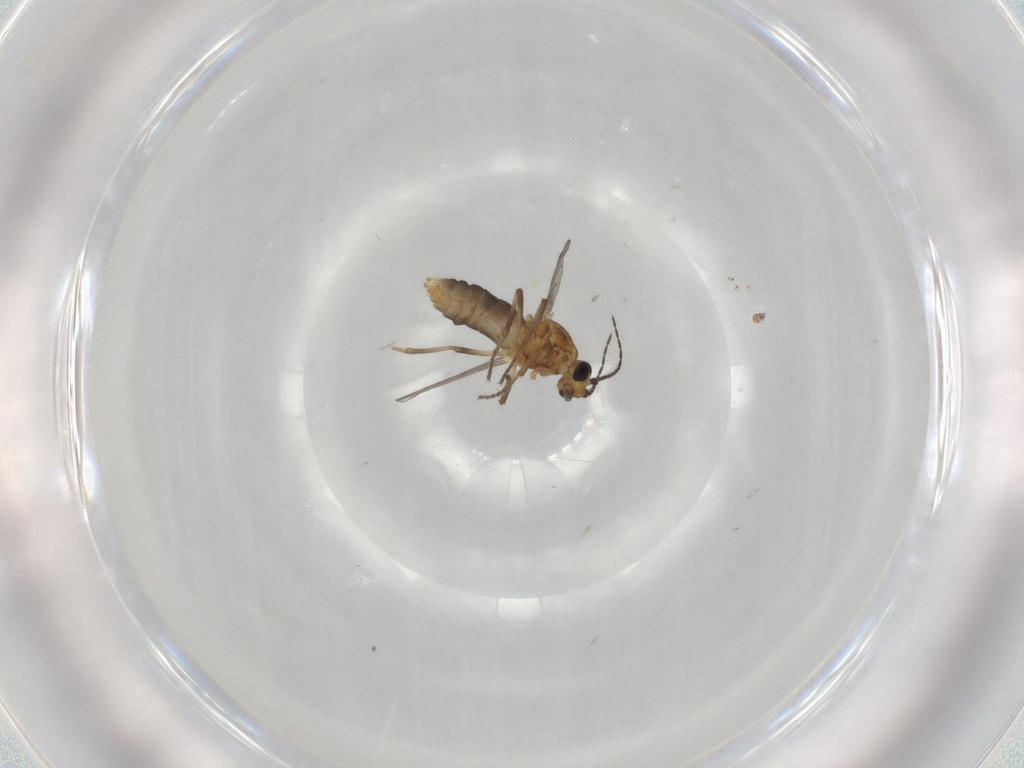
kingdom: Animalia
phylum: Arthropoda
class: Insecta
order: Diptera
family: Ceratopogonidae
